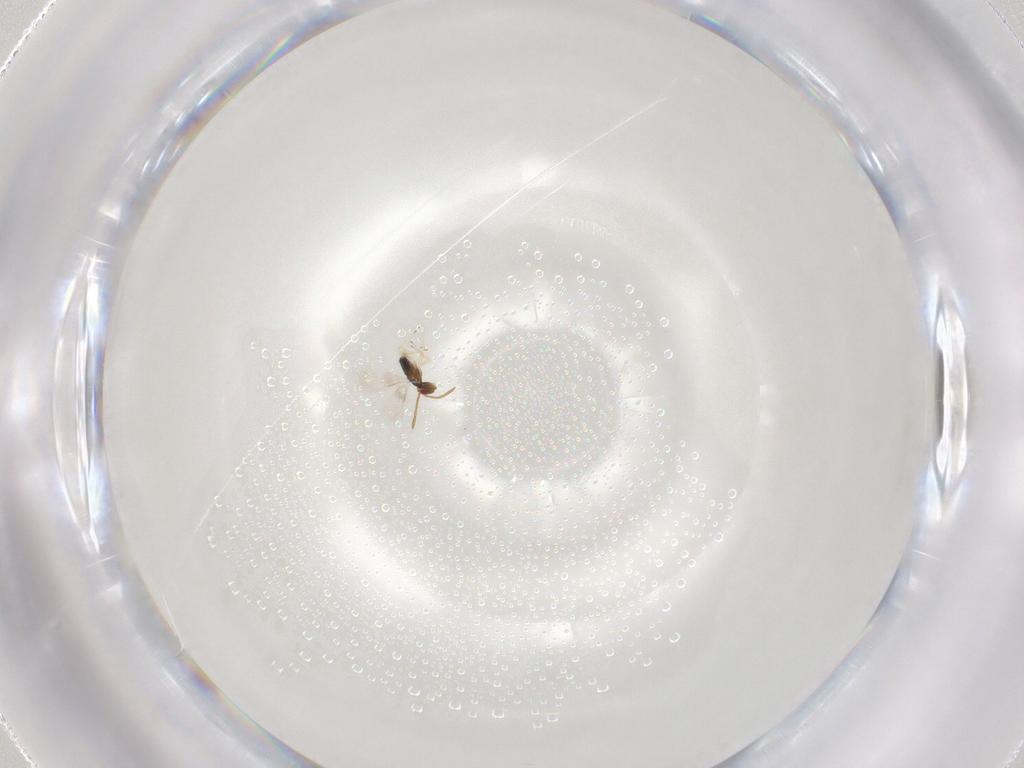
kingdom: Animalia
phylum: Arthropoda
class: Insecta
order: Hymenoptera
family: Trichogrammatidae
